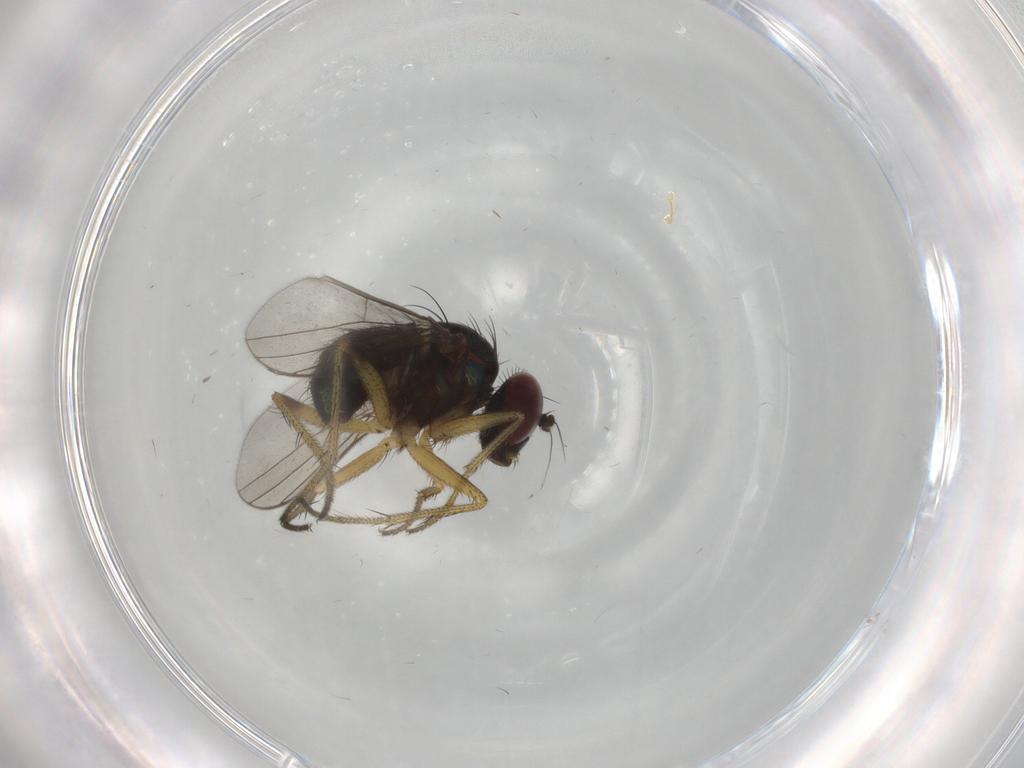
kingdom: Animalia
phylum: Arthropoda
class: Insecta
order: Diptera
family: Dolichopodidae
